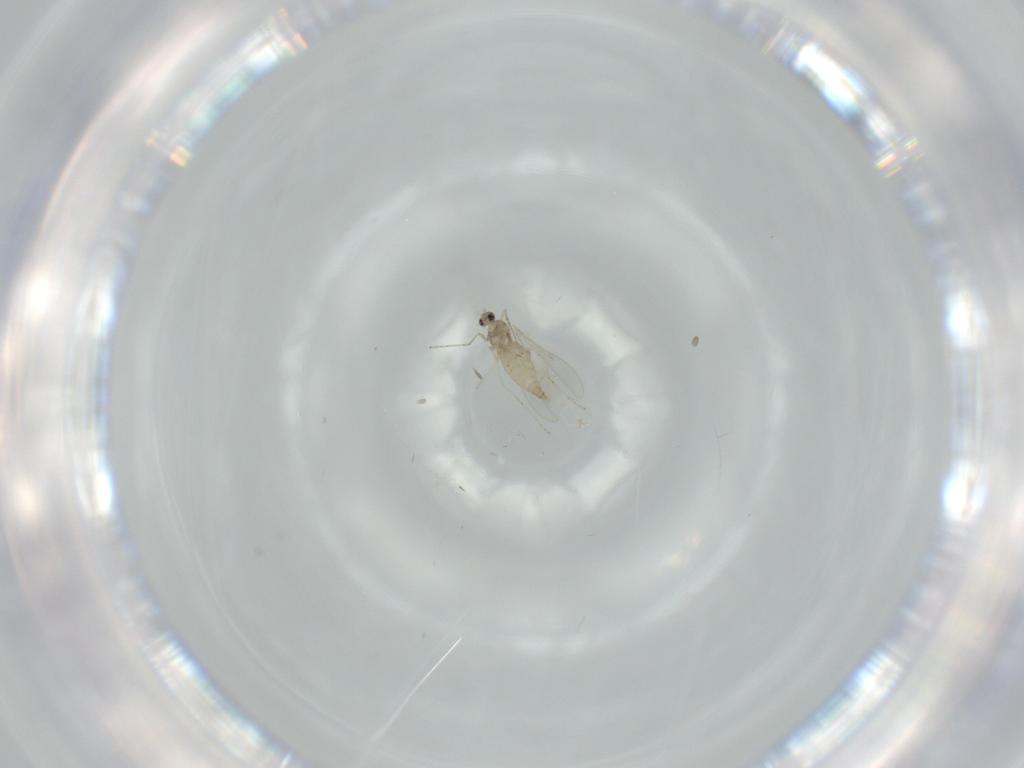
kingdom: Animalia
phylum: Arthropoda
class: Insecta
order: Diptera
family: Cecidomyiidae
